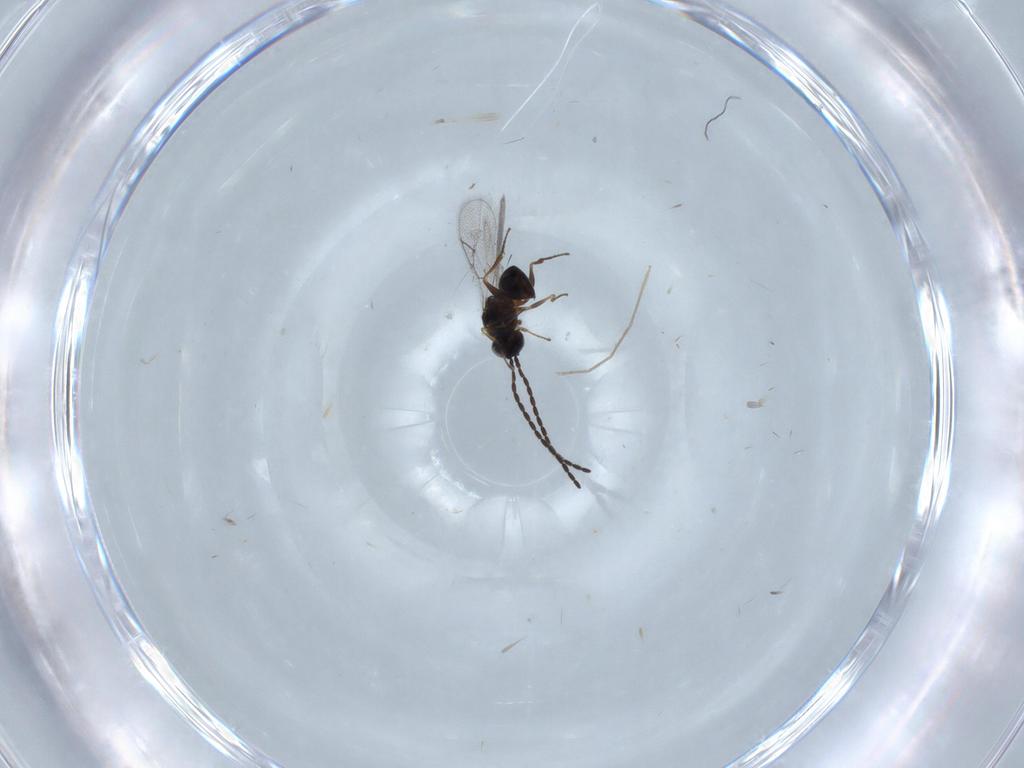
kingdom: Animalia
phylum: Arthropoda
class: Insecta
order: Hymenoptera
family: Figitidae
